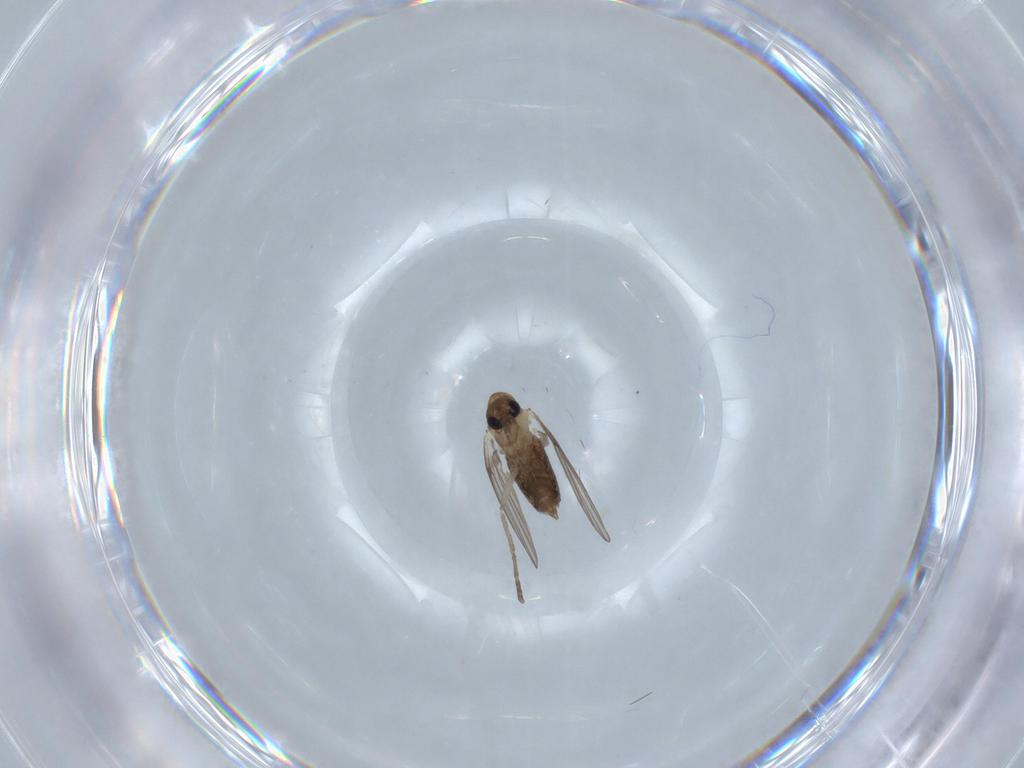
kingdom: Animalia
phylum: Arthropoda
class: Insecta
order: Diptera
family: Psychodidae
